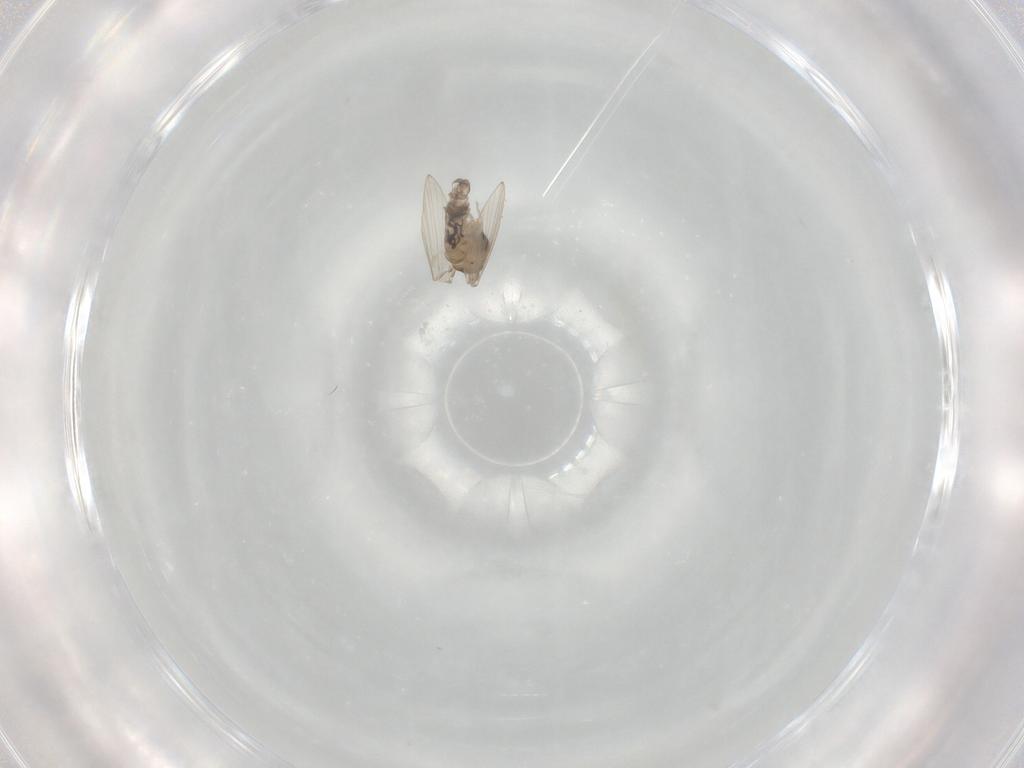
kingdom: Animalia
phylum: Arthropoda
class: Insecta
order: Diptera
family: Psychodidae
